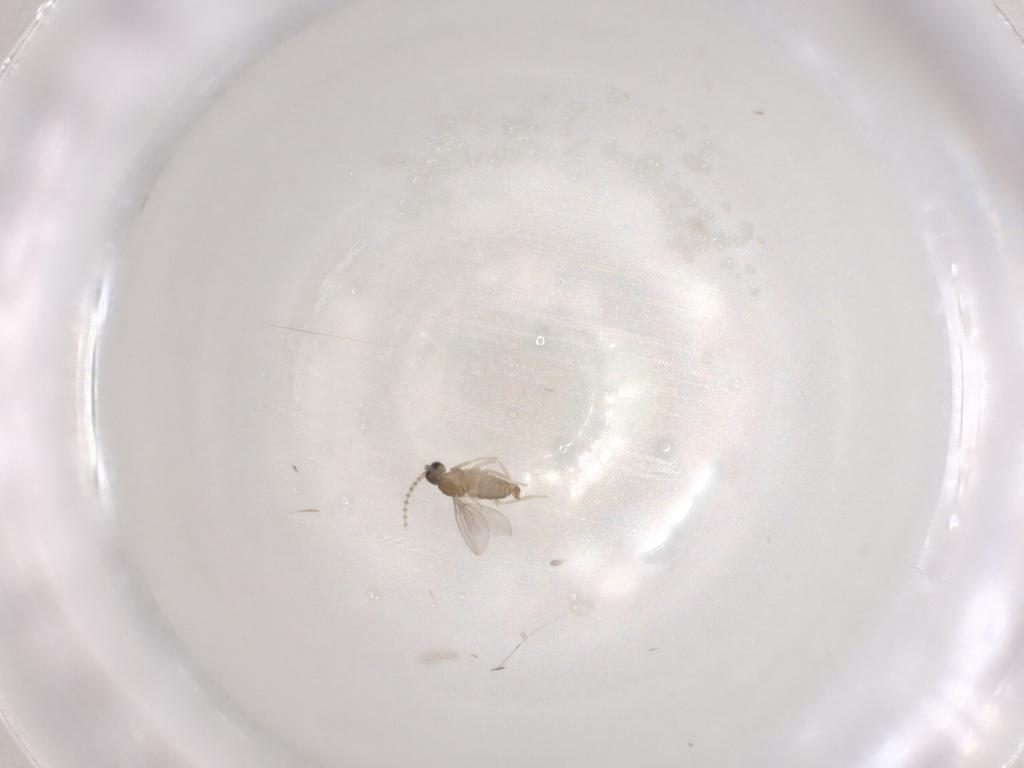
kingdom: Animalia
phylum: Arthropoda
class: Insecta
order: Diptera
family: Cecidomyiidae
